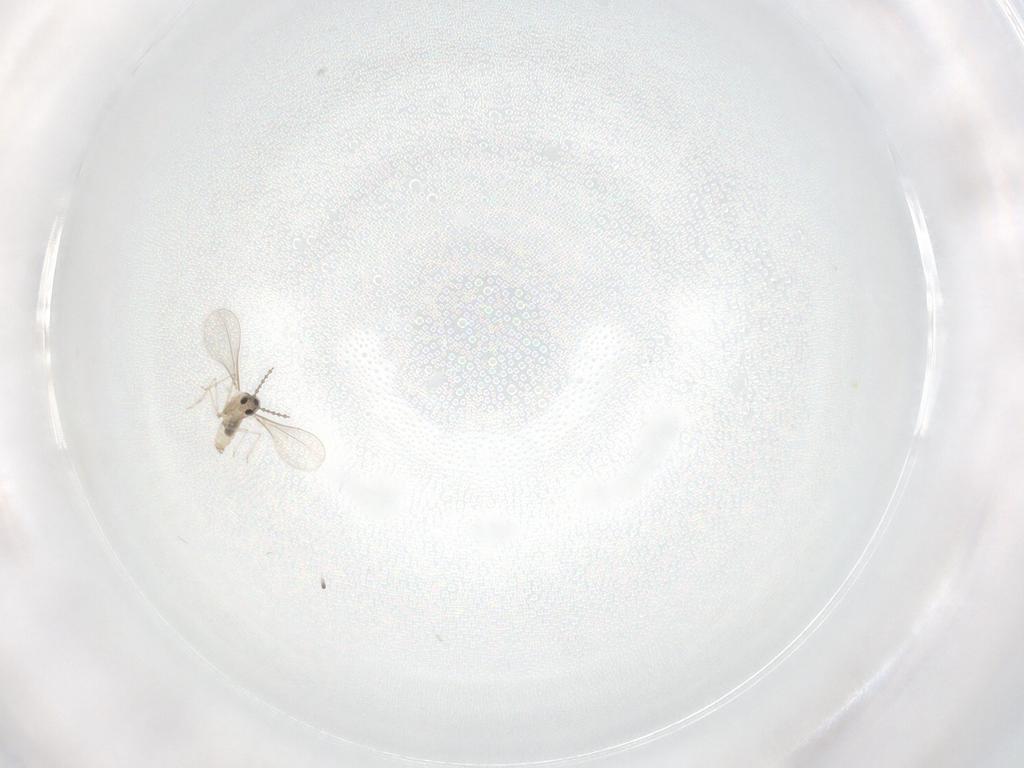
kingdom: Animalia
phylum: Arthropoda
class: Insecta
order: Diptera
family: Cecidomyiidae
